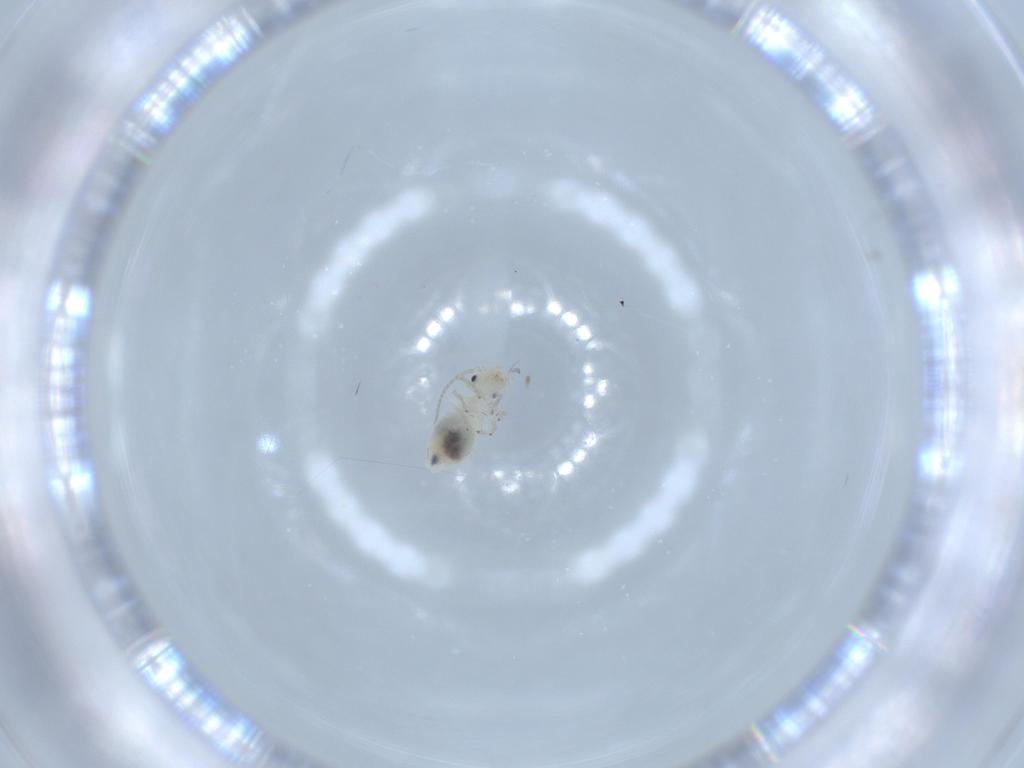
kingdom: Animalia
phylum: Arthropoda
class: Insecta
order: Psocodea
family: Caeciliusidae
